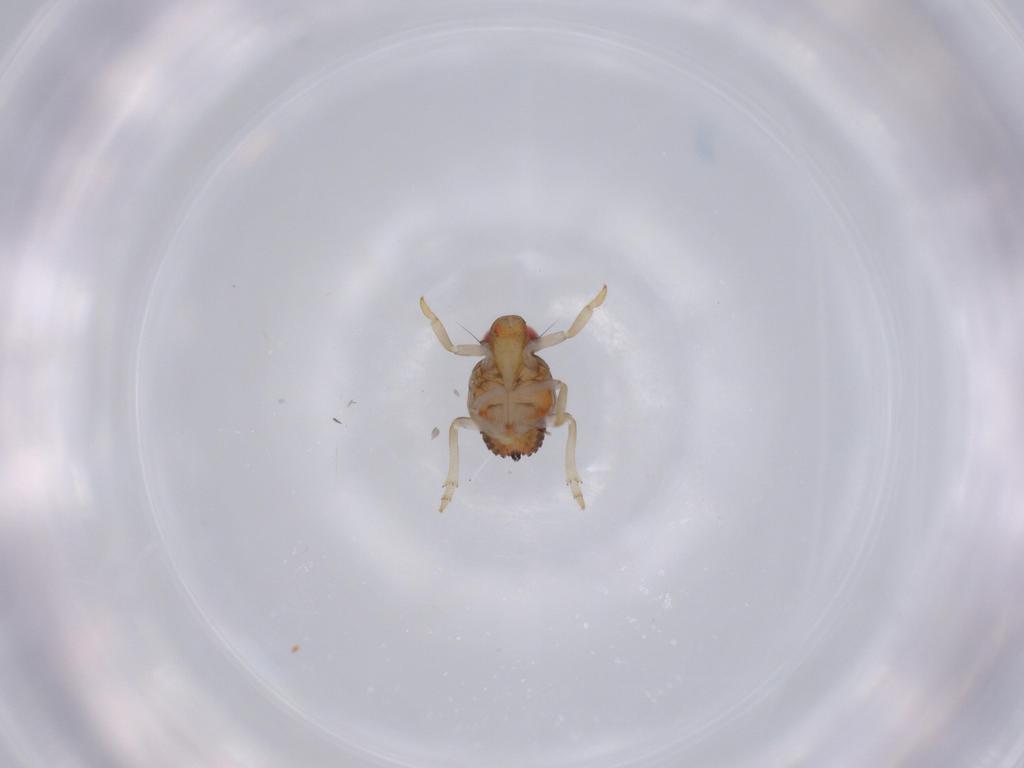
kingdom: Animalia
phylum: Arthropoda
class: Insecta
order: Hemiptera
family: Issidae
